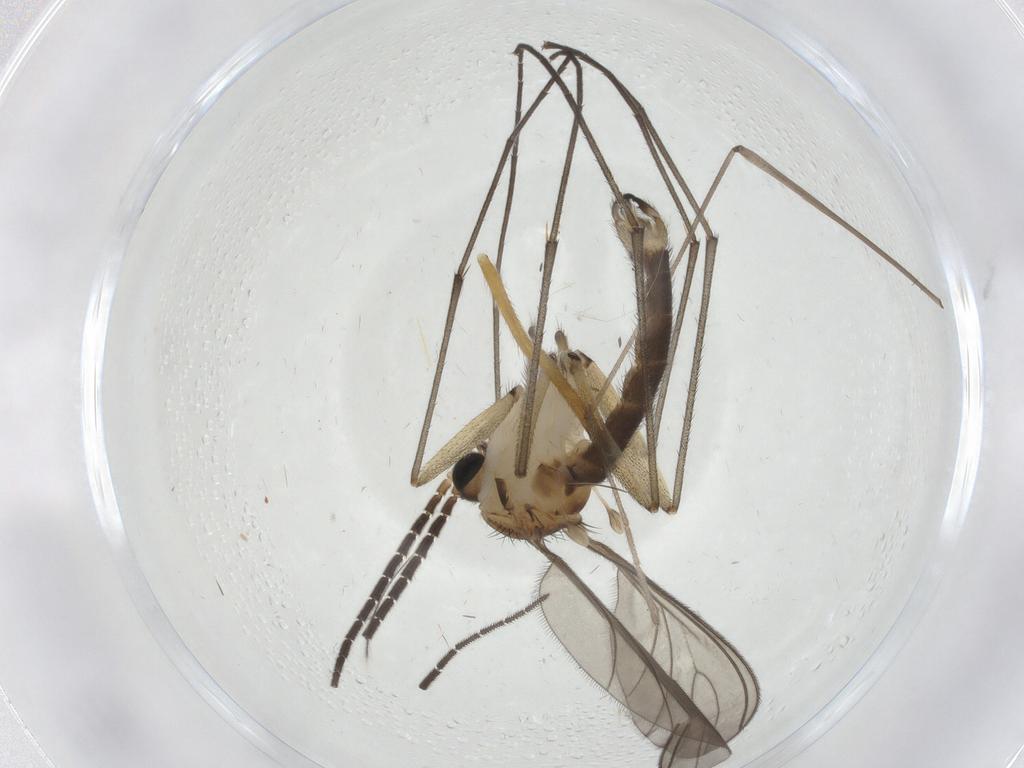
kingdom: Animalia
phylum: Arthropoda
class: Insecta
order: Diptera
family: Sciaridae
